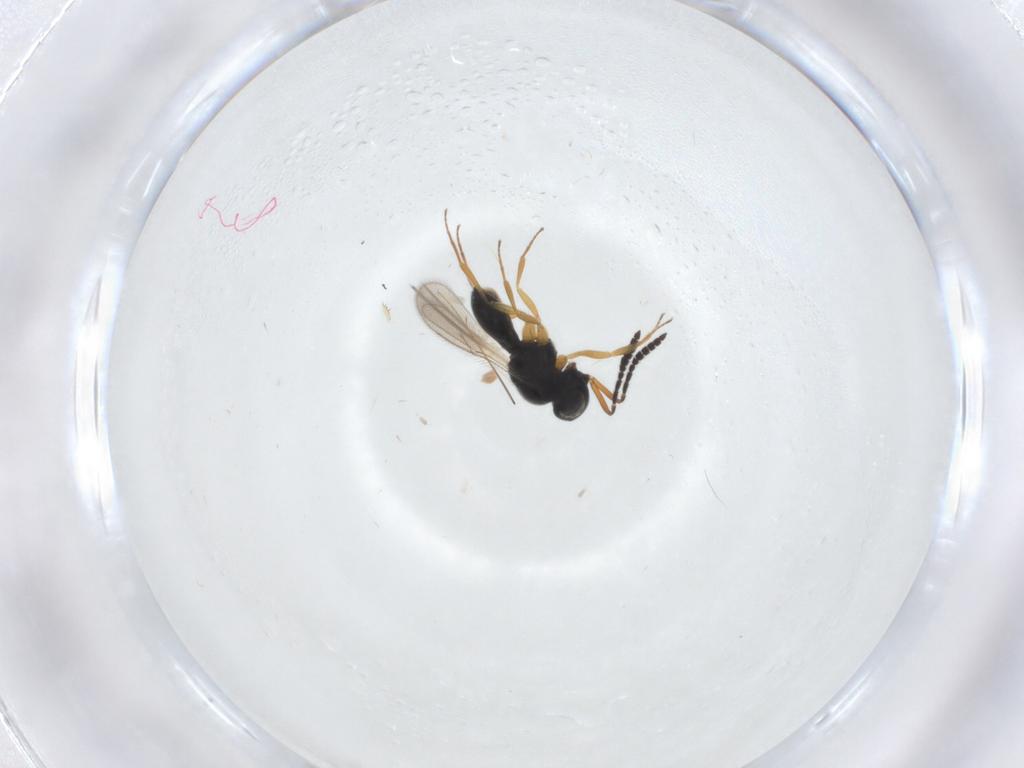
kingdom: Animalia
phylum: Arthropoda
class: Insecta
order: Hymenoptera
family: Scelionidae
